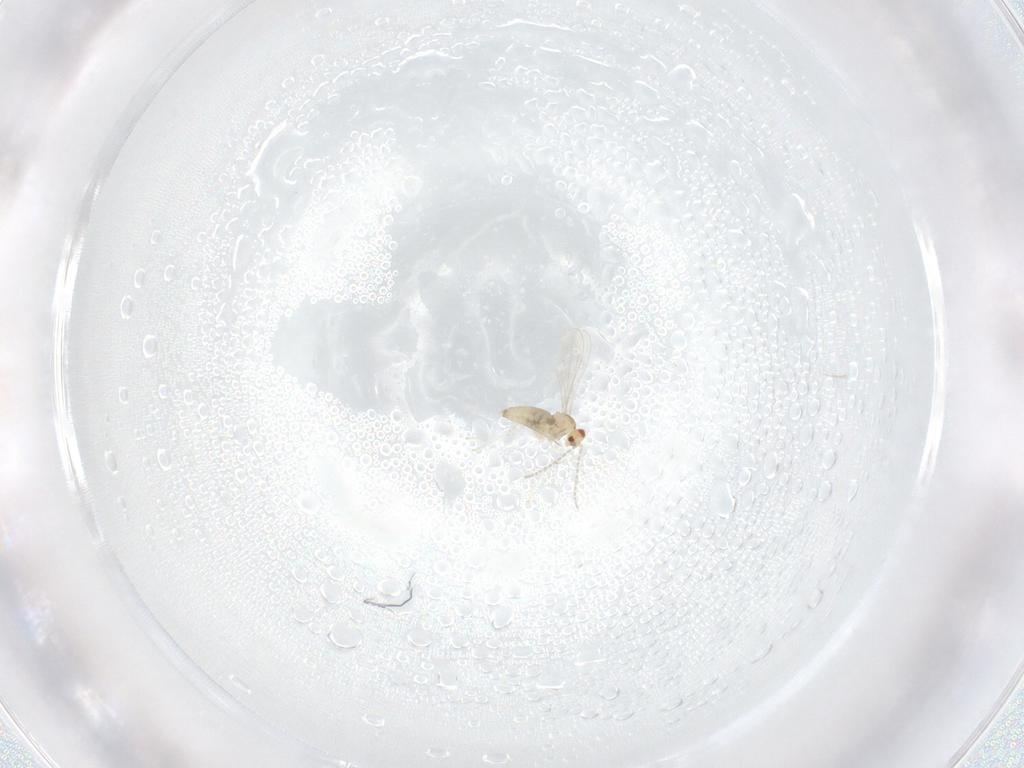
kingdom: Animalia
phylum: Arthropoda
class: Insecta
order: Diptera
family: Cecidomyiidae
